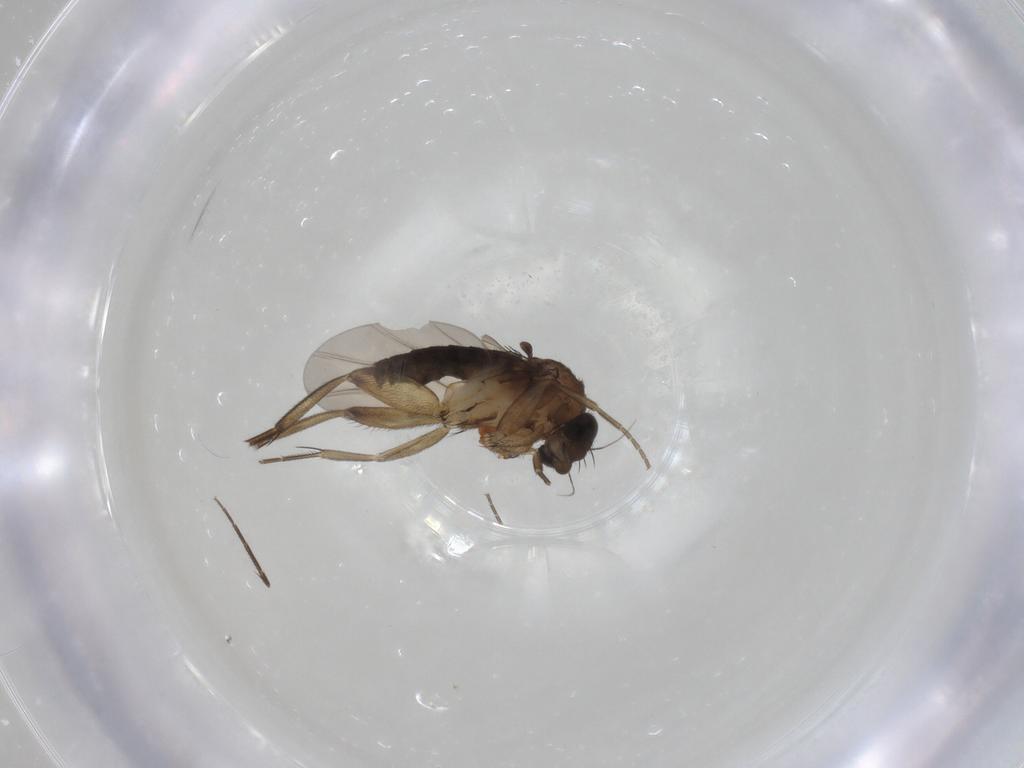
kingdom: Animalia
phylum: Arthropoda
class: Insecta
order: Diptera
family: Phoridae
